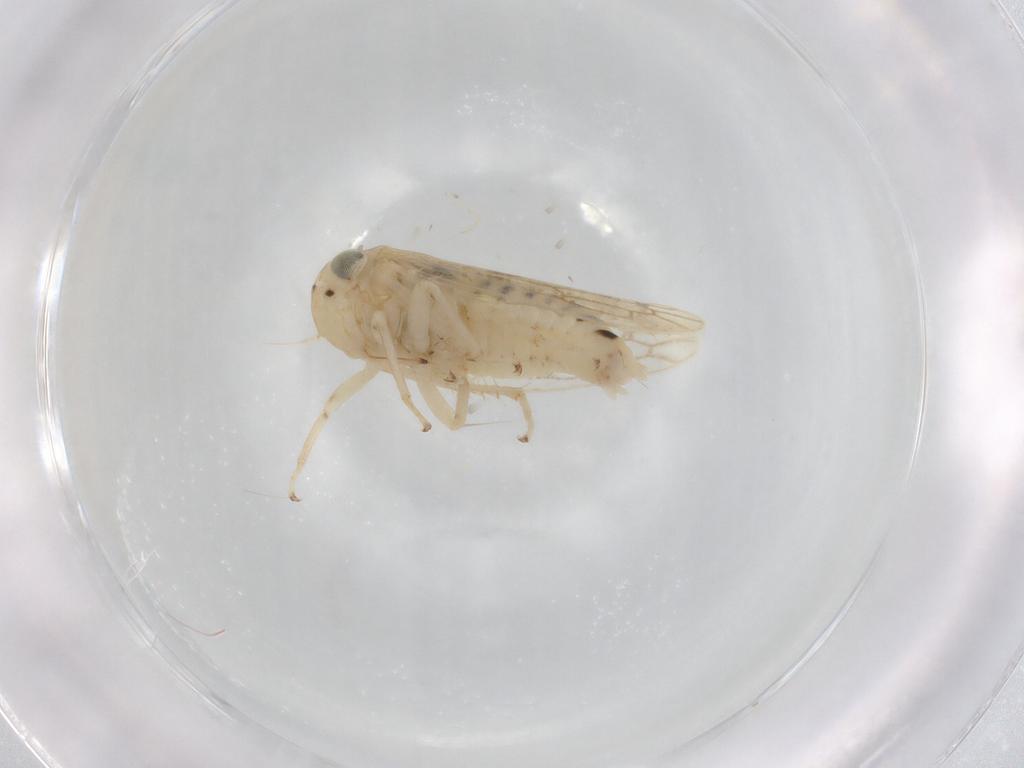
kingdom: Animalia
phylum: Arthropoda
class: Insecta
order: Hemiptera
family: Cicadellidae
